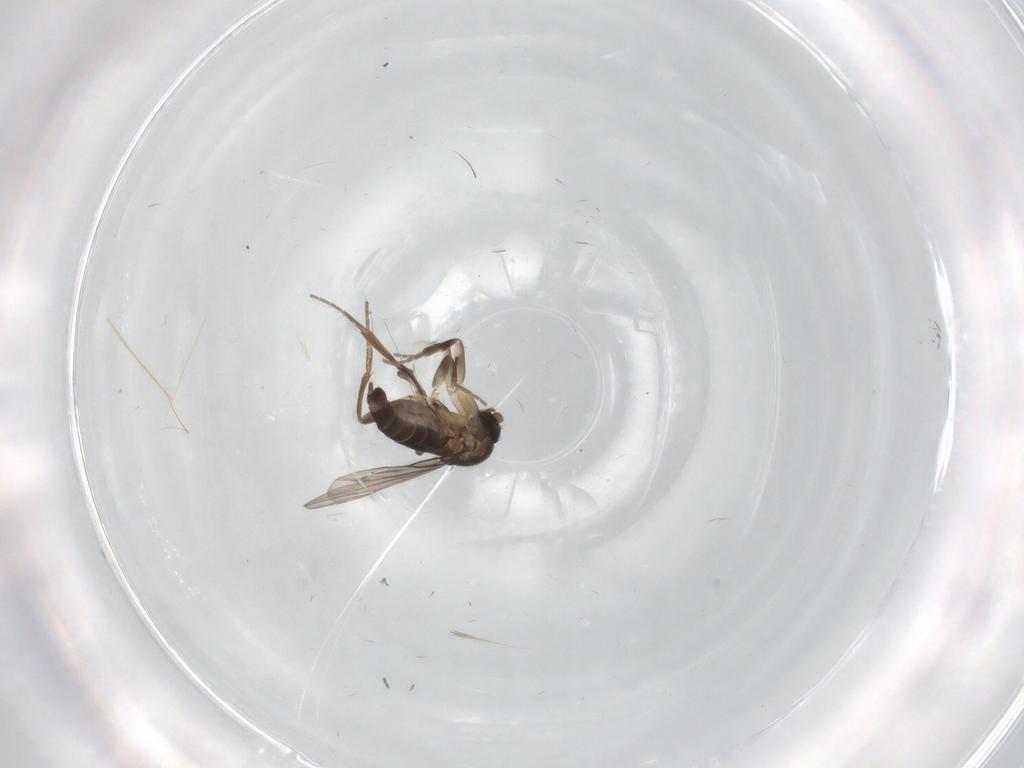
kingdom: Animalia
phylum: Arthropoda
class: Insecta
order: Diptera
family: Phoridae
